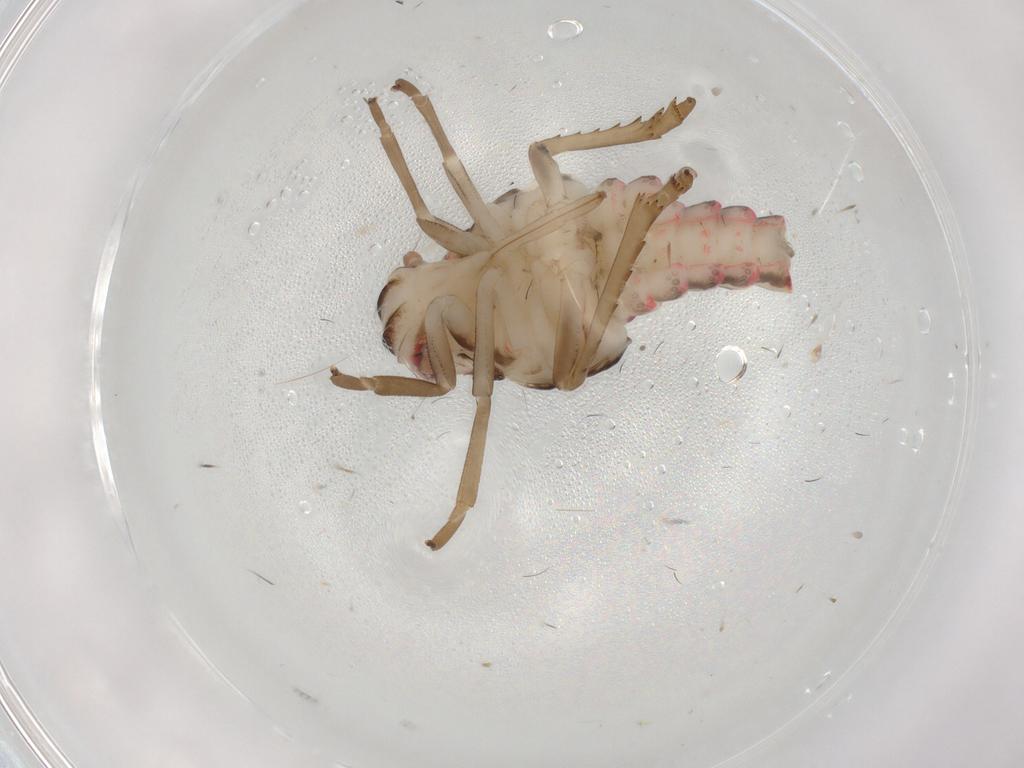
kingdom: Animalia
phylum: Arthropoda
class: Insecta
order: Hemiptera
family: Nogodinidae
